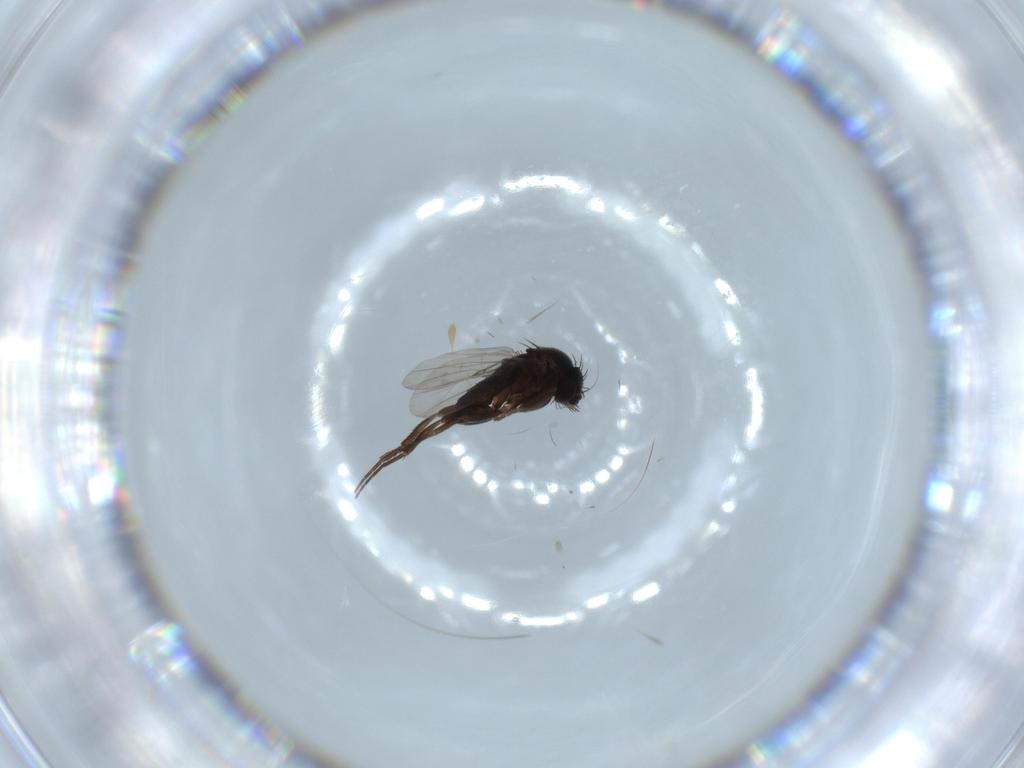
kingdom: Animalia
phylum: Arthropoda
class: Insecta
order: Diptera
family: Phoridae
